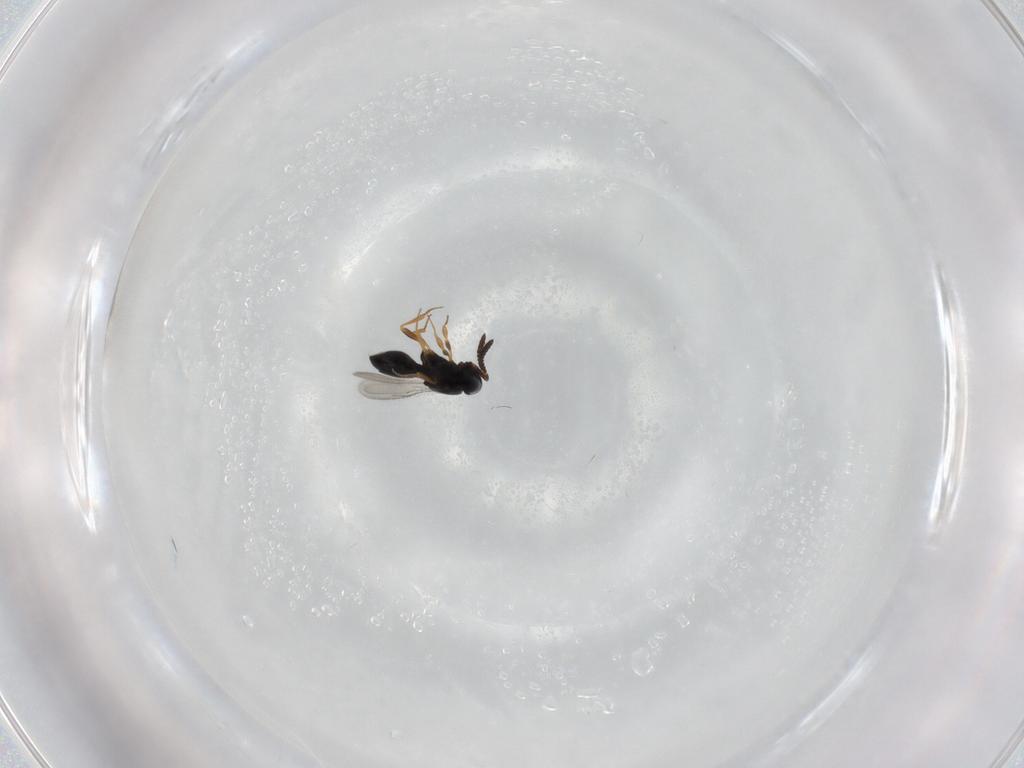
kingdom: Animalia
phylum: Arthropoda
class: Insecta
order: Hymenoptera
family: Scelionidae
